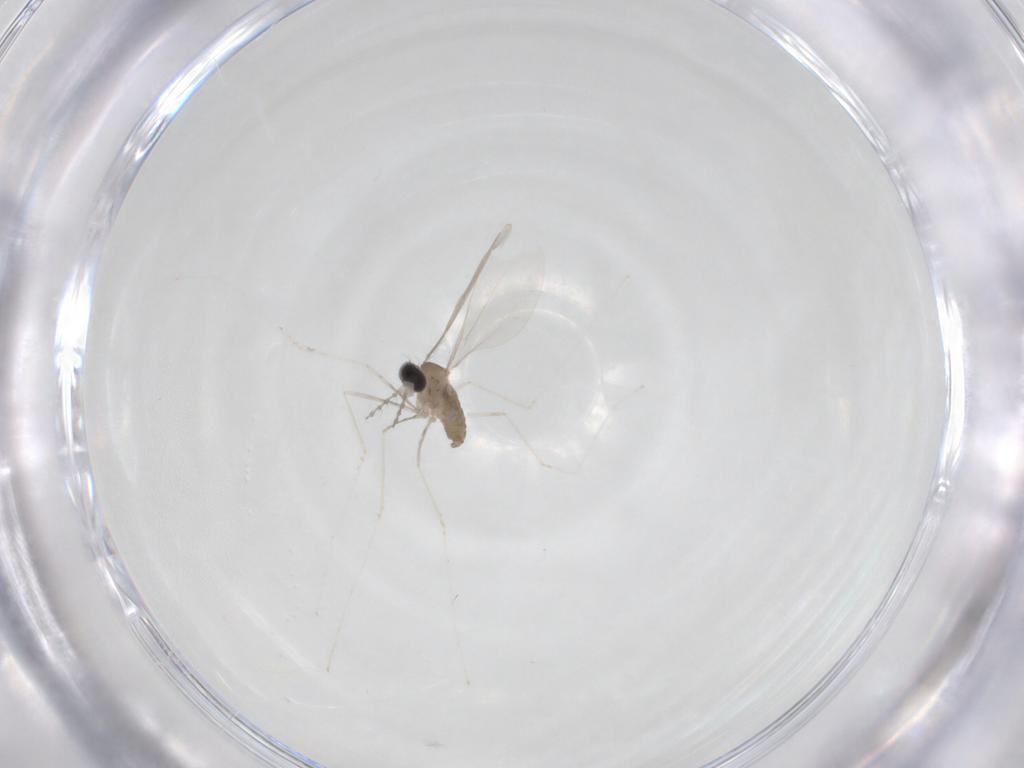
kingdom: Animalia
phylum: Arthropoda
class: Insecta
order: Diptera
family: Cecidomyiidae
